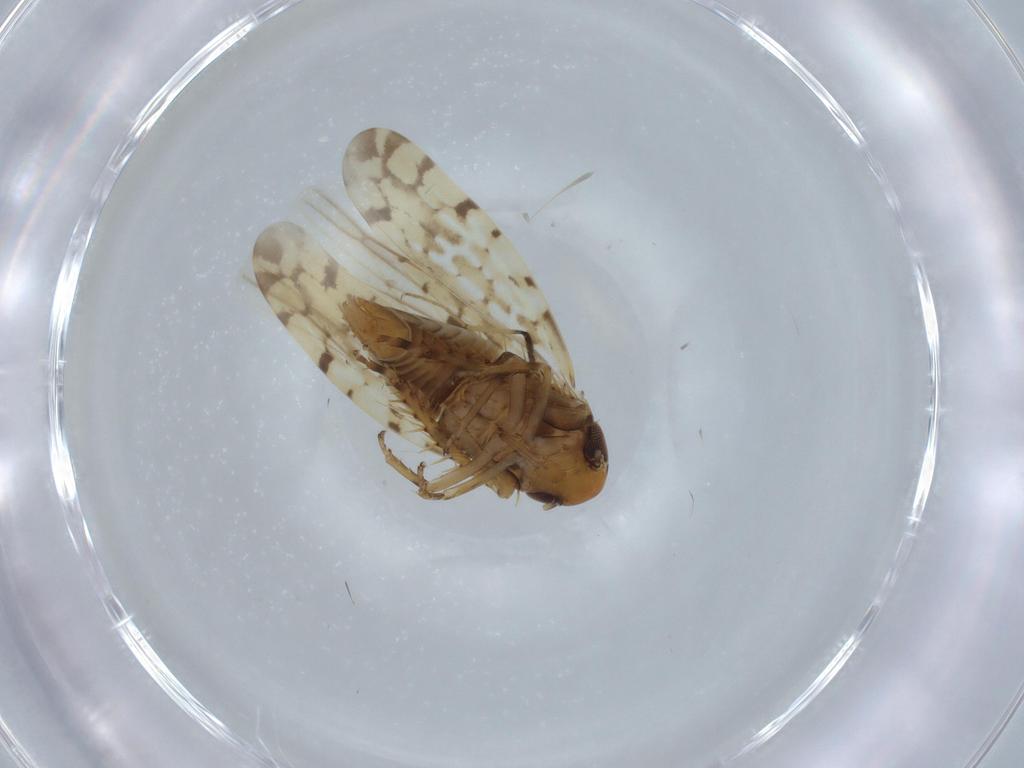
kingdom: Animalia
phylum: Arthropoda
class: Insecta
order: Hemiptera
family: Cicadellidae
